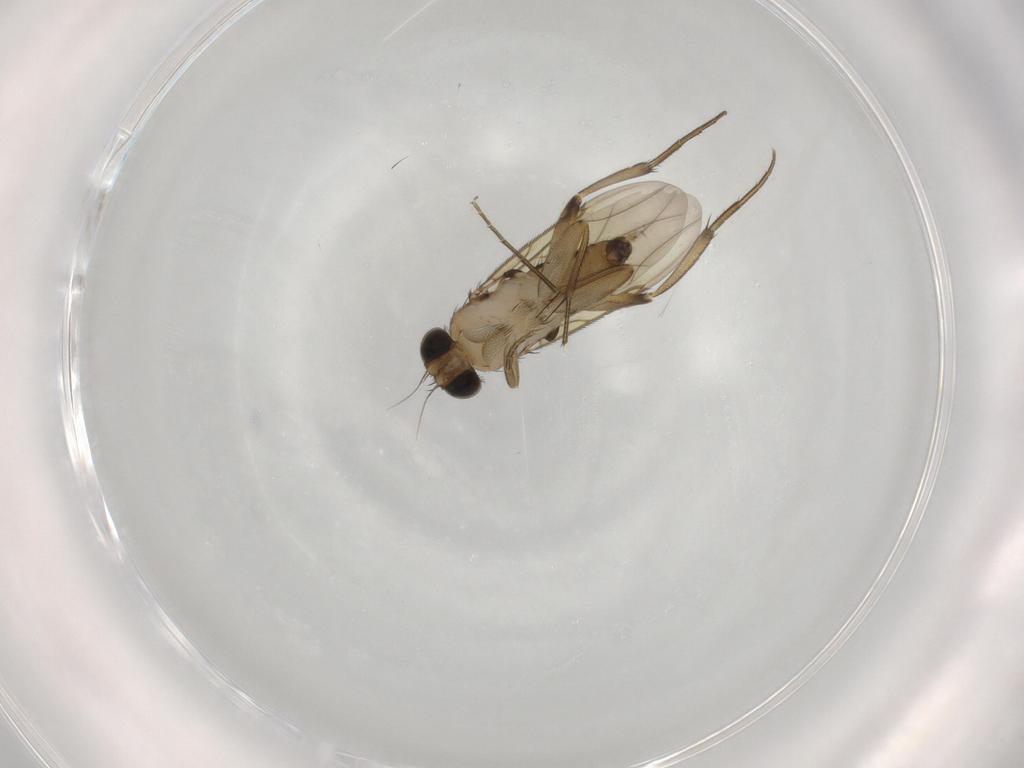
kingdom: Animalia
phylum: Arthropoda
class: Insecta
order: Diptera
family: Phoridae
